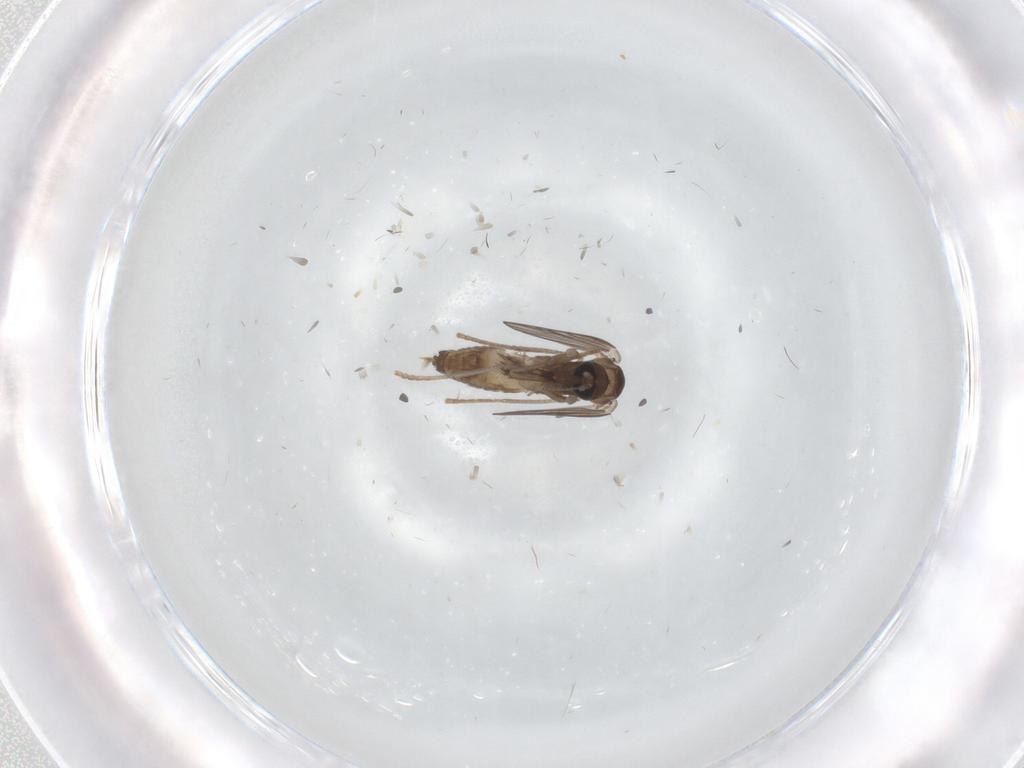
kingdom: Animalia
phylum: Arthropoda
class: Insecta
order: Diptera
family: Psychodidae
